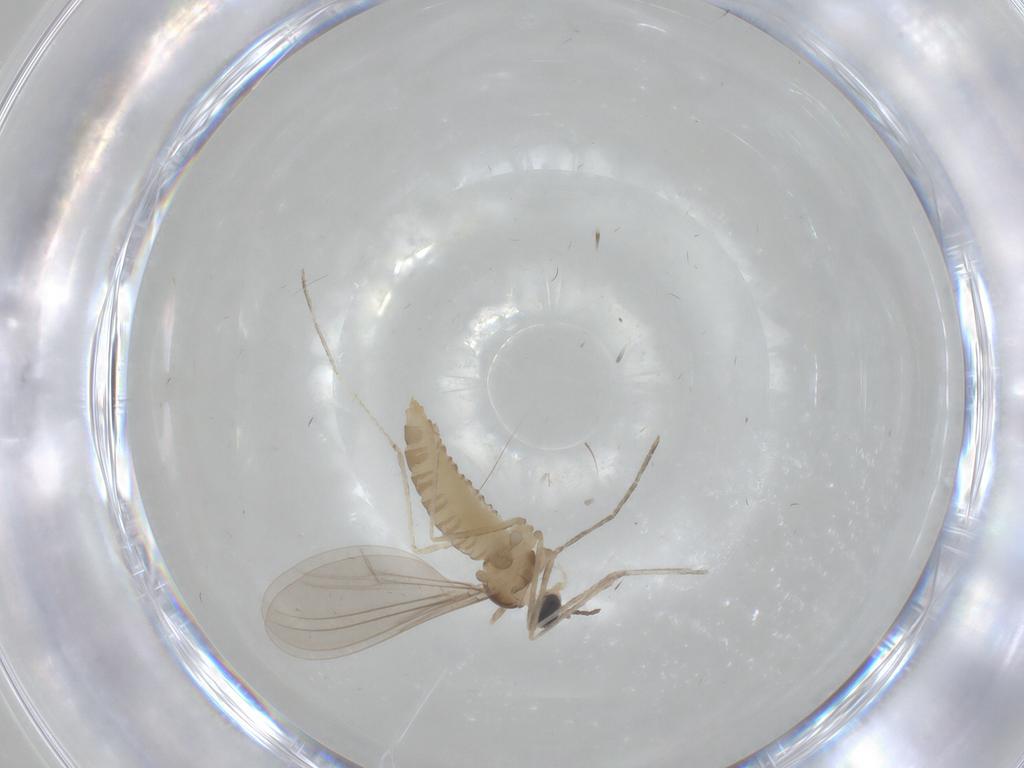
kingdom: Animalia
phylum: Arthropoda
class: Insecta
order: Diptera
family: Cecidomyiidae
